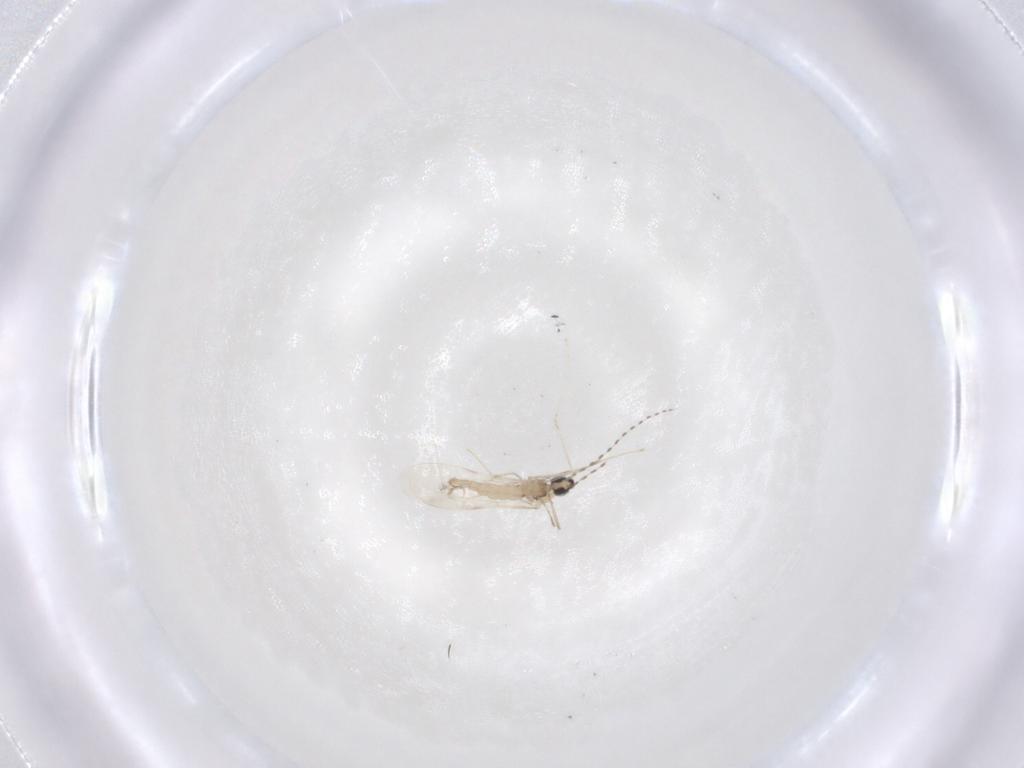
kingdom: Animalia
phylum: Arthropoda
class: Insecta
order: Diptera
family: Cecidomyiidae
